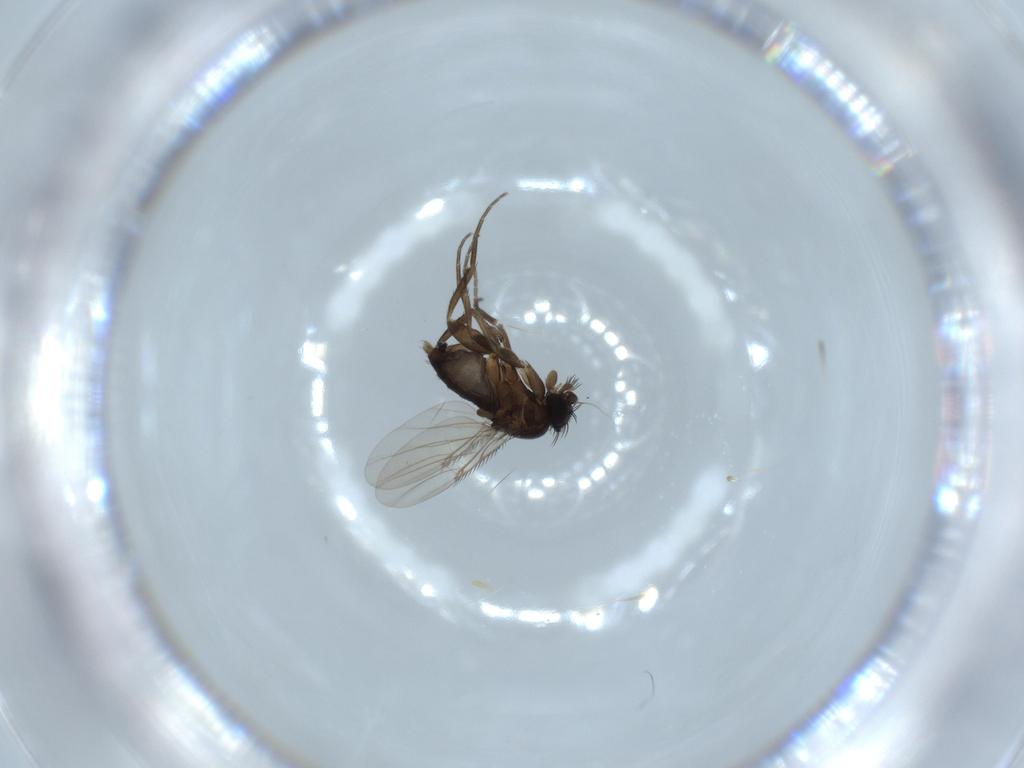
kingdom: Animalia
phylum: Arthropoda
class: Insecta
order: Diptera
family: Phoridae
